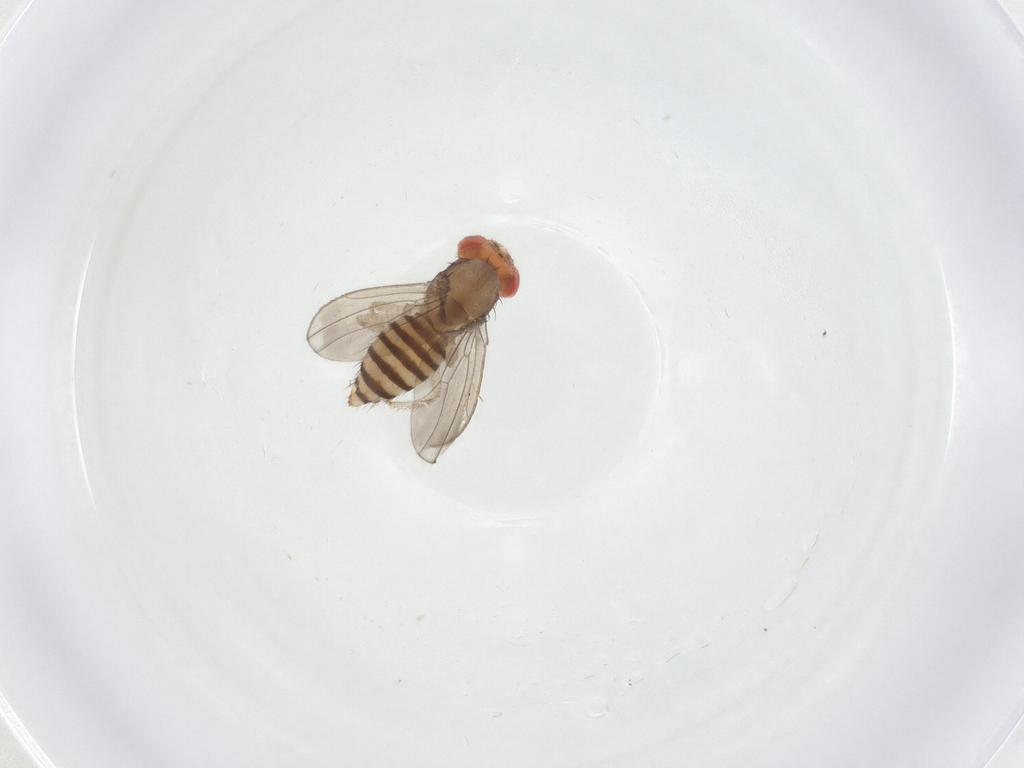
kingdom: Animalia
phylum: Arthropoda
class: Insecta
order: Diptera
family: Drosophilidae
